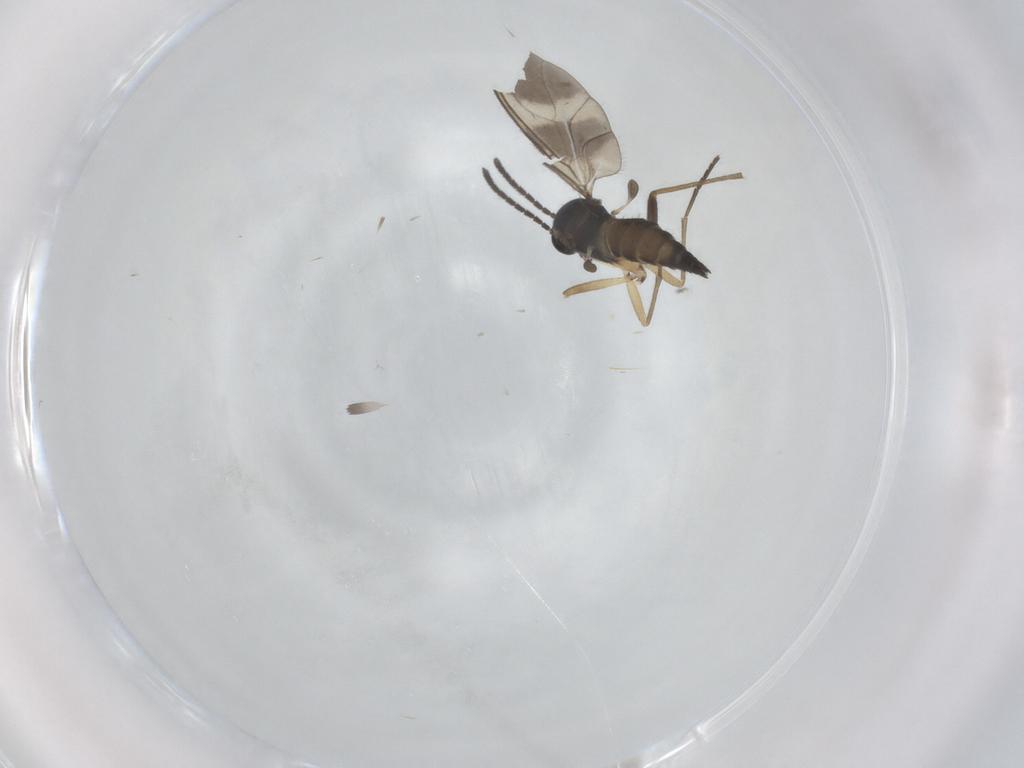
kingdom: Animalia
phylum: Arthropoda
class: Insecta
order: Diptera
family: Sciaridae
